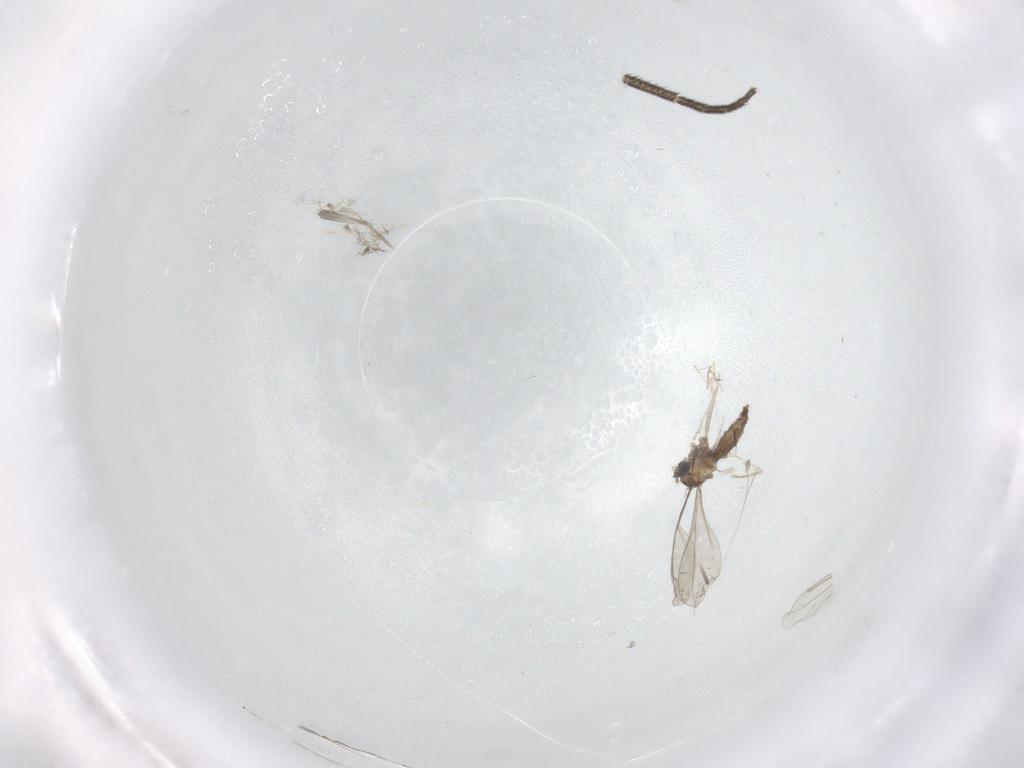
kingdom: Animalia
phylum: Arthropoda
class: Insecta
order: Diptera
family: Sciaridae
